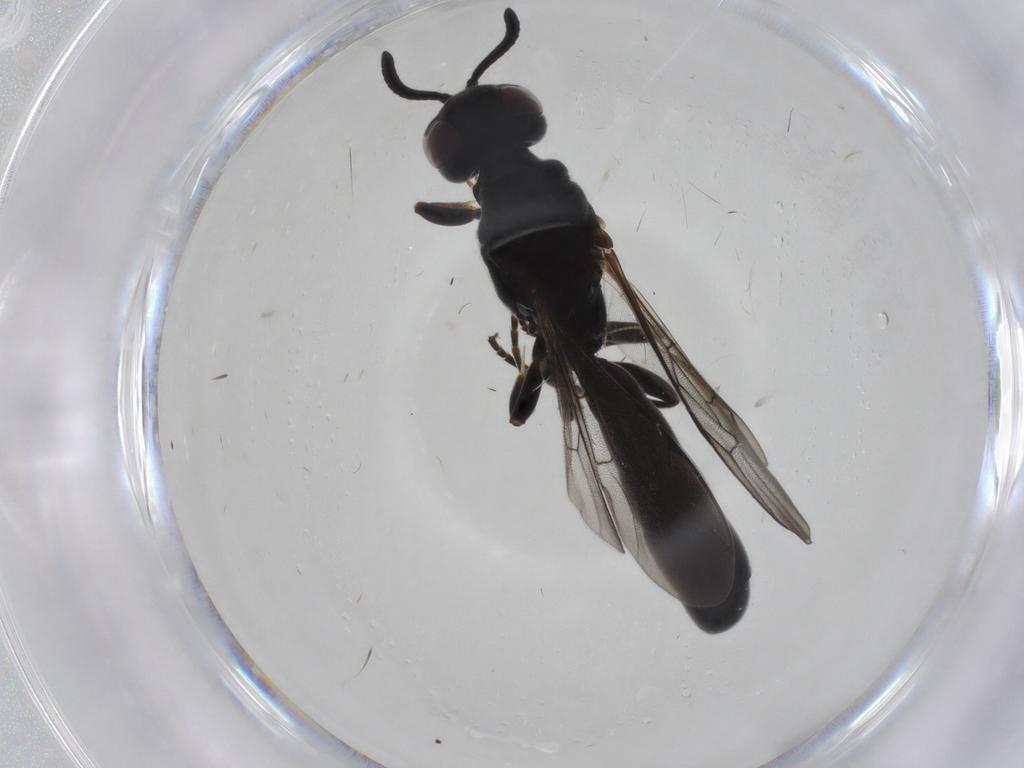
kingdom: Animalia
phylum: Arthropoda
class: Insecta
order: Hymenoptera
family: Crabronidae
